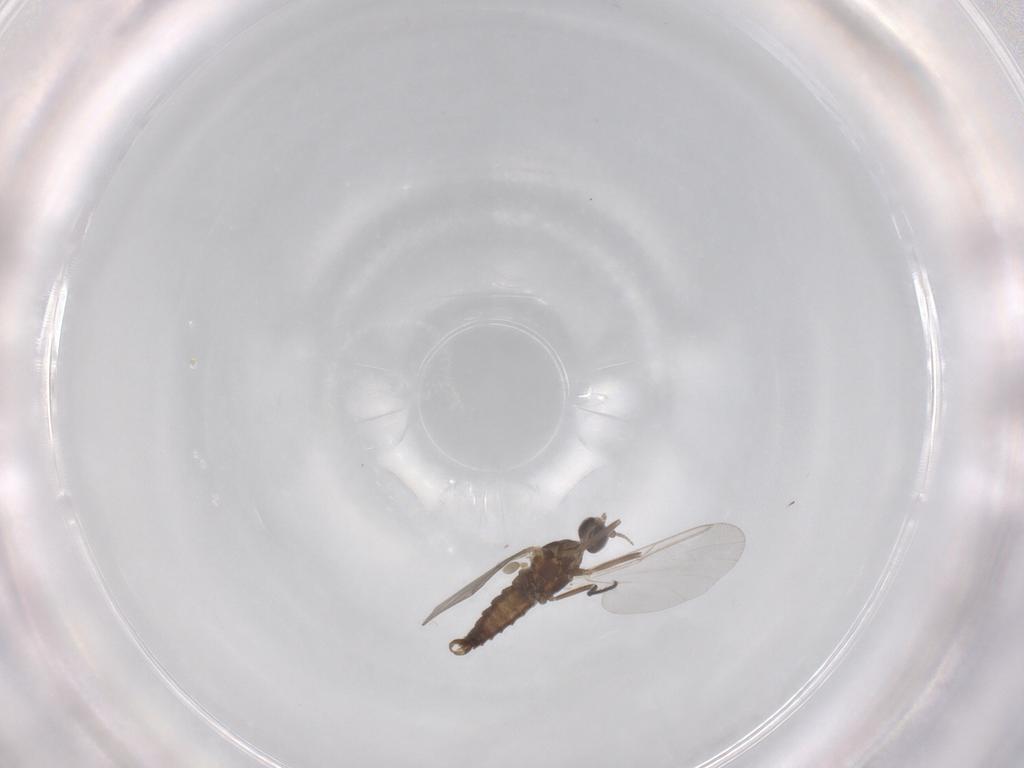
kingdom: Animalia
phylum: Arthropoda
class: Insecta
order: Diptera
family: Cecidomyiidae
